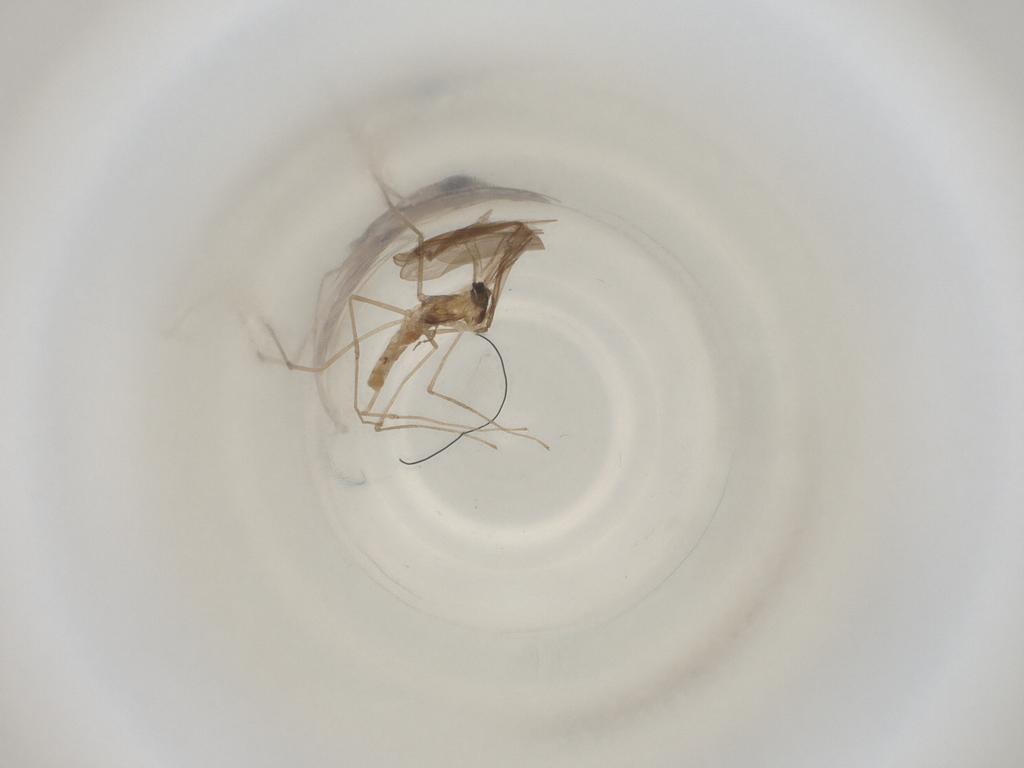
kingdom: Animalia
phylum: Arthropoda
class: Insecta
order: Diptera
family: Cecidomyiidae
